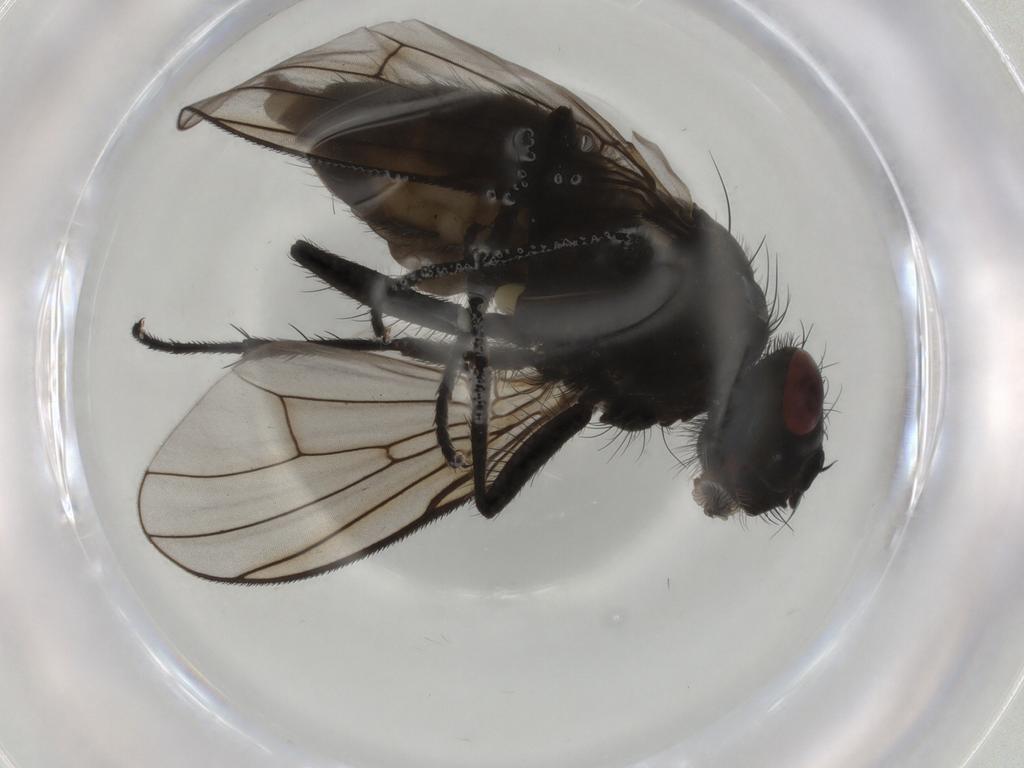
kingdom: Animalia
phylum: Arthropoda
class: Insecta
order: Diptera
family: Muscidae
